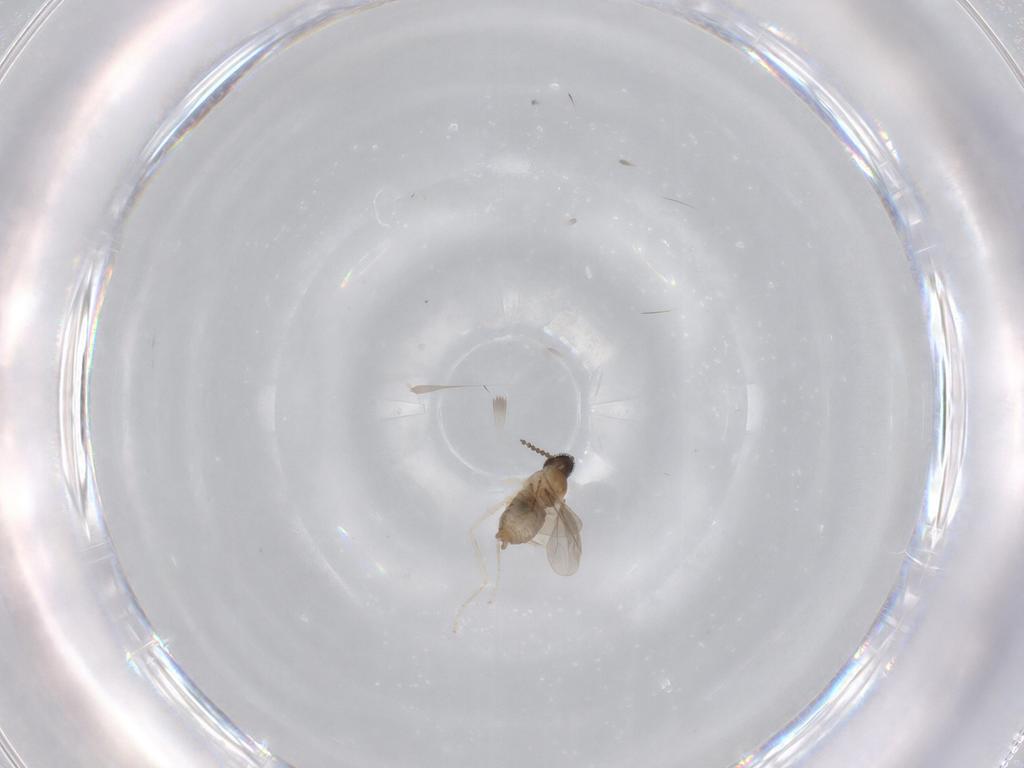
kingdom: Animalia
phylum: Arthropoda
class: Insecta
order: Diptera
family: Cecidomyiidae
